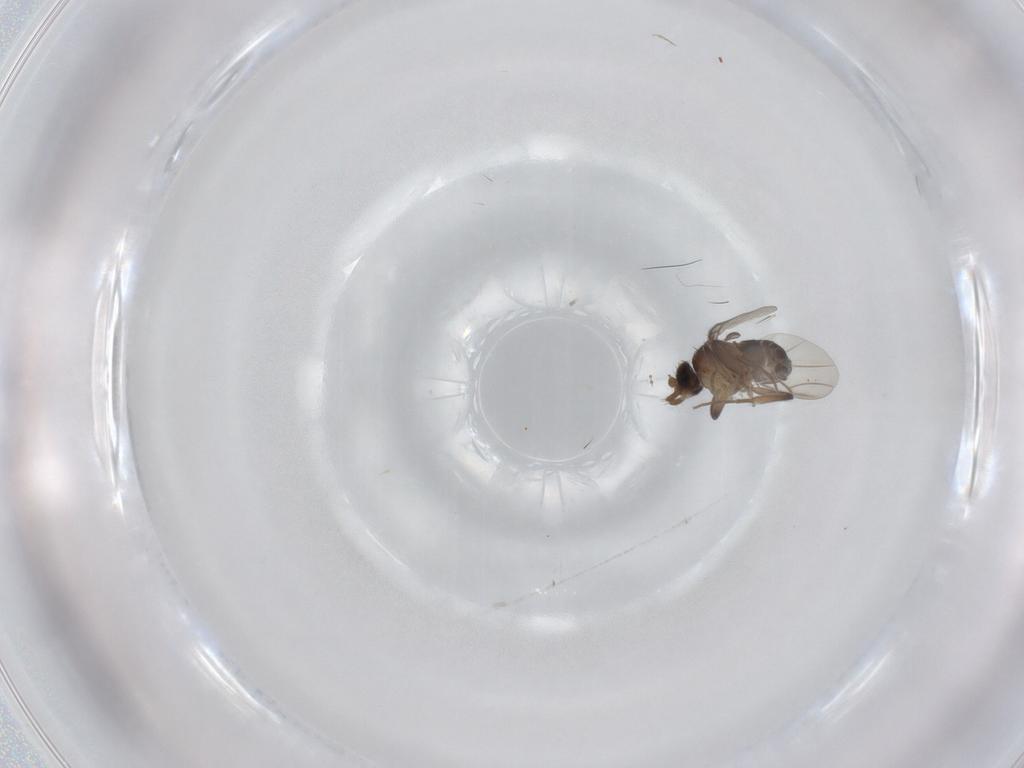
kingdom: Animalia
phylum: Arthropoda
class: Insecta
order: Diptera
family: Phoridae
